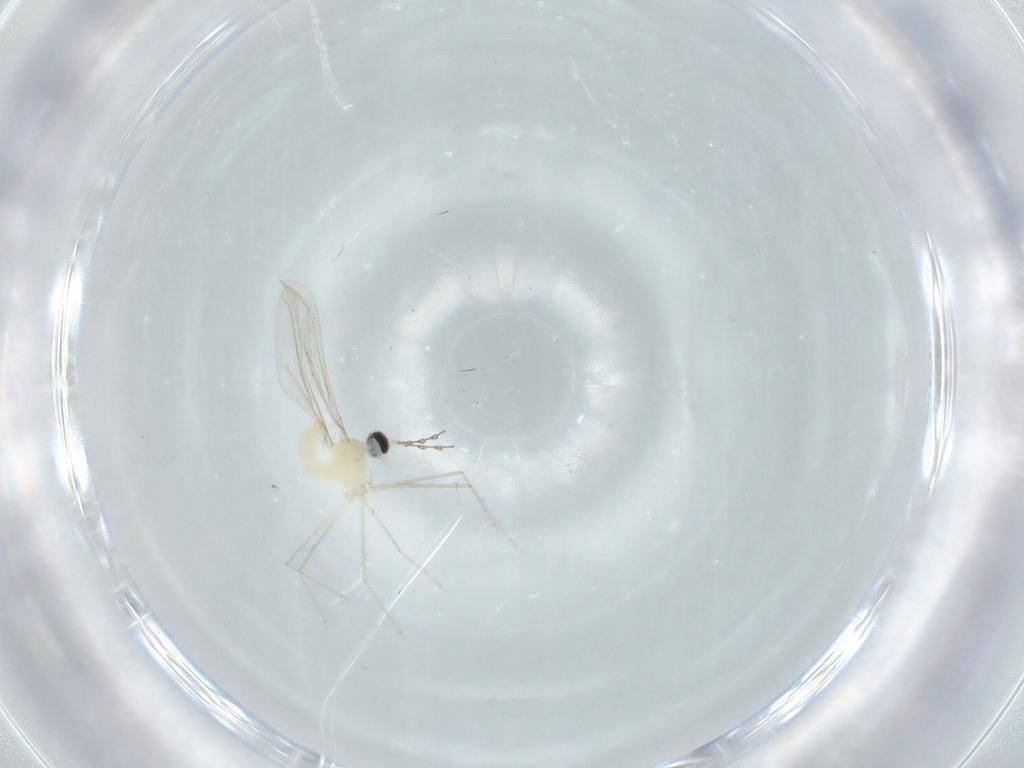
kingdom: Animalia
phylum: Arthropoda
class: Insecta
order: Diptera
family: Cecidomyiidae
